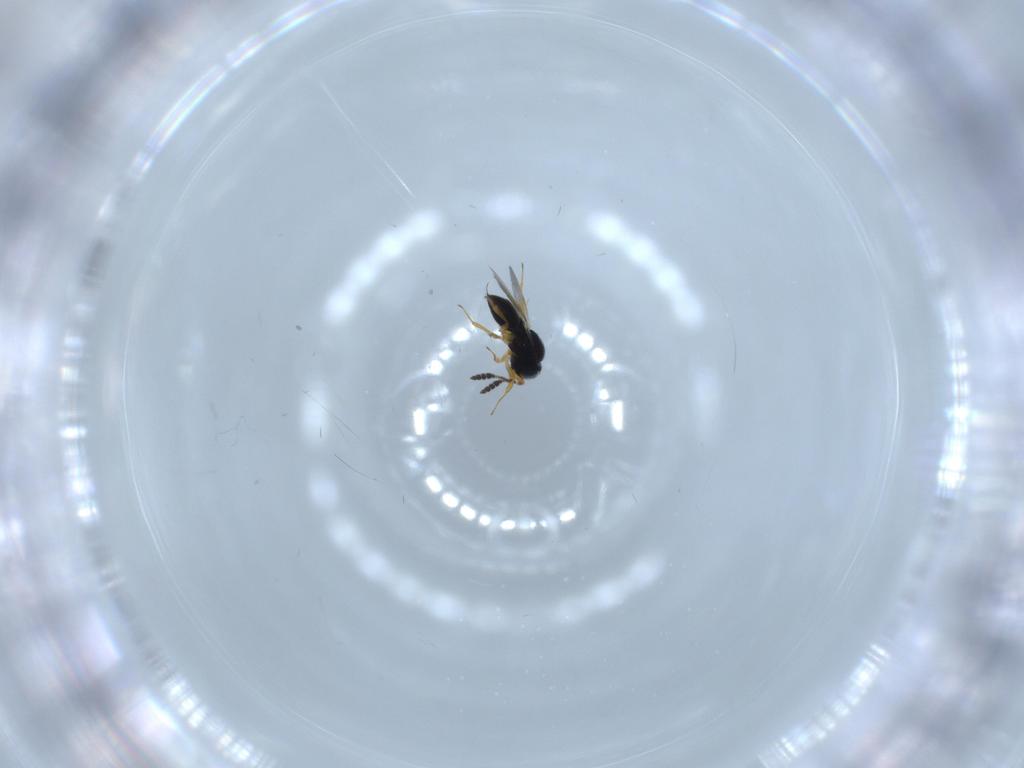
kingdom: Animalia
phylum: Arthropoda
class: Insecta
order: Hymenoptera
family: Scelionidae
